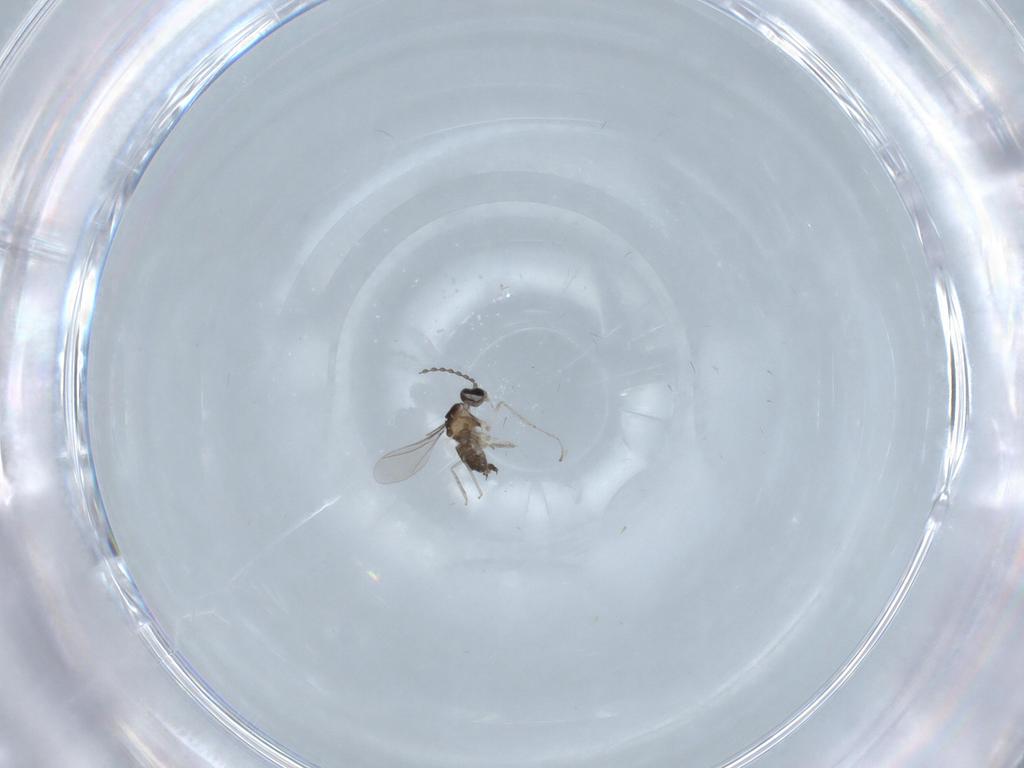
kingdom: Animalia
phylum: Arthropoda
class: Insecta
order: Diptera
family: Cecidomyiidae
